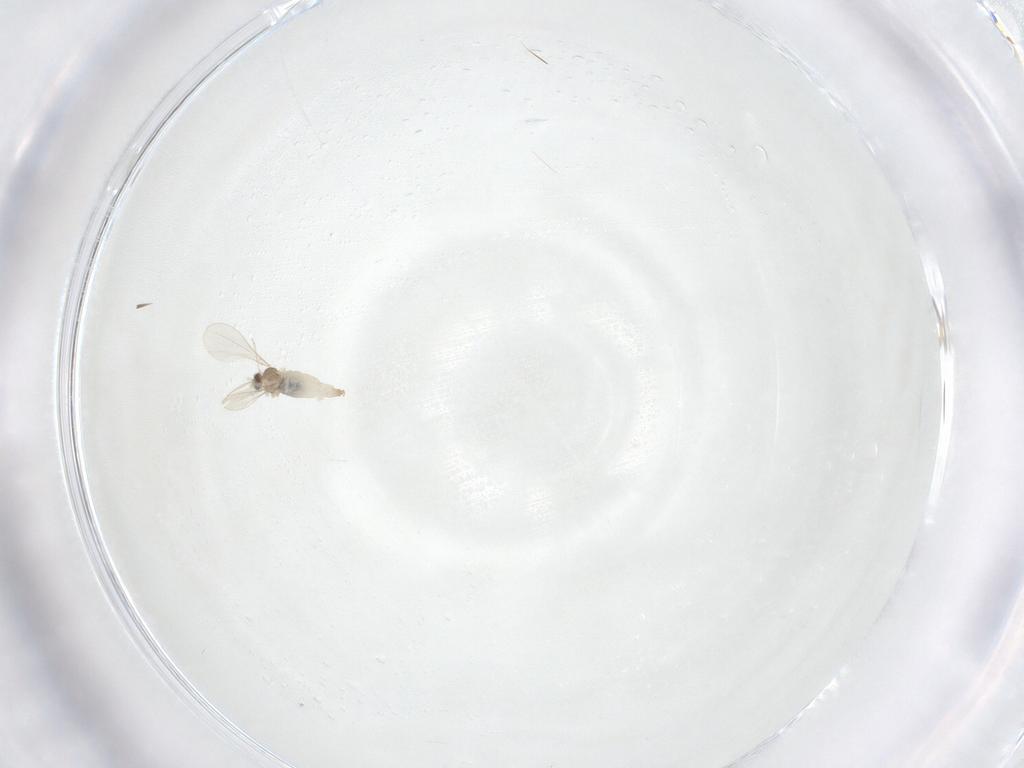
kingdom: Animalia
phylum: Arthropoda
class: Insecta
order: Diptera
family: Cecidomyiidae
